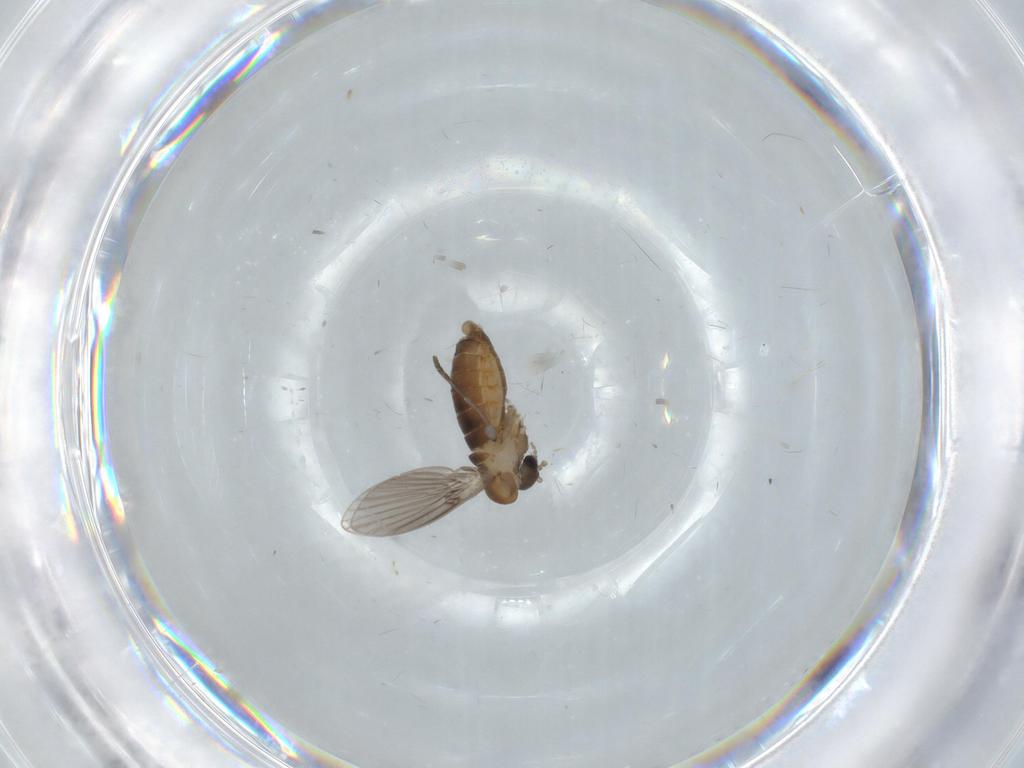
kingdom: Animalia
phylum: Arthropoda
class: Insecta
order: Diptera
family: Psychodidae
